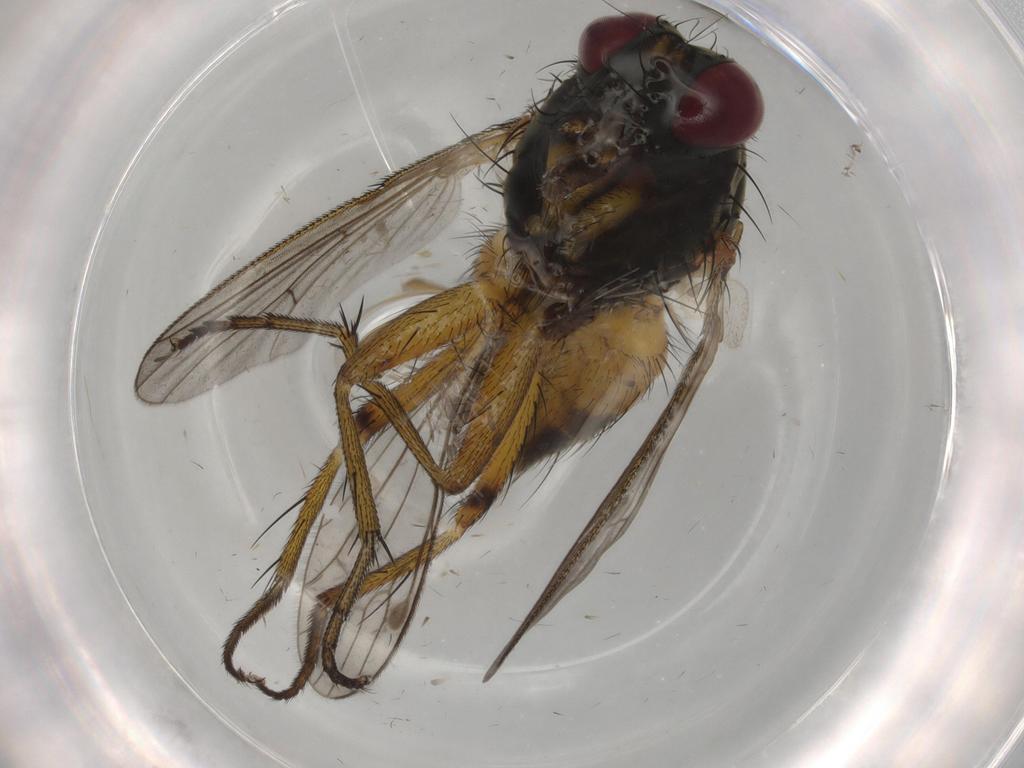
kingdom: Animalia
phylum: Arthropoda
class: Insecta
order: Diptera
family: Muscidae
